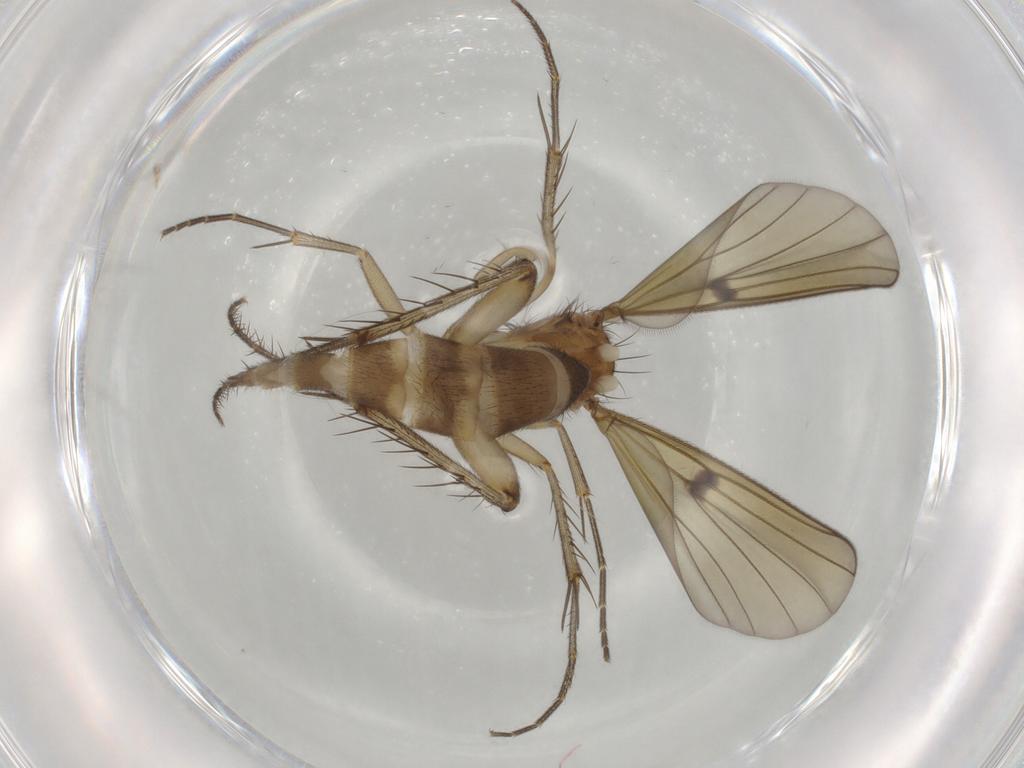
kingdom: Animalia
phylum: Arthropoda
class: Insecta
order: Diptera
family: Mycetophilidae
